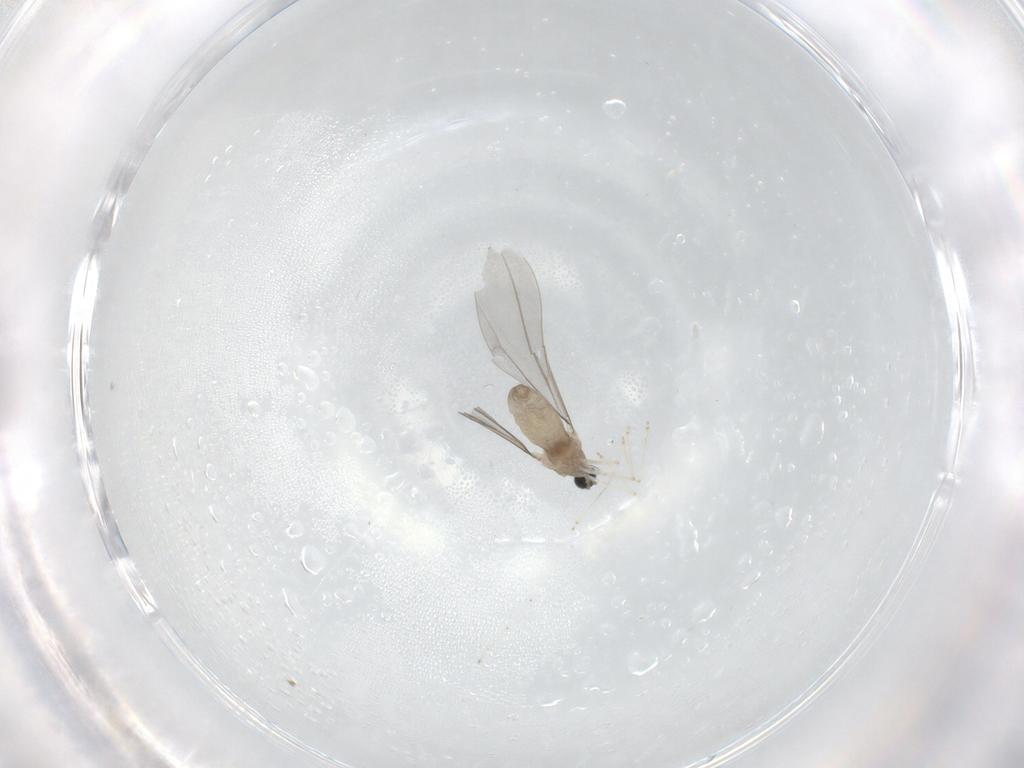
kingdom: Animalia
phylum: Arthropoda
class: Insecta
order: Diptera
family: Cecidomyiidae
